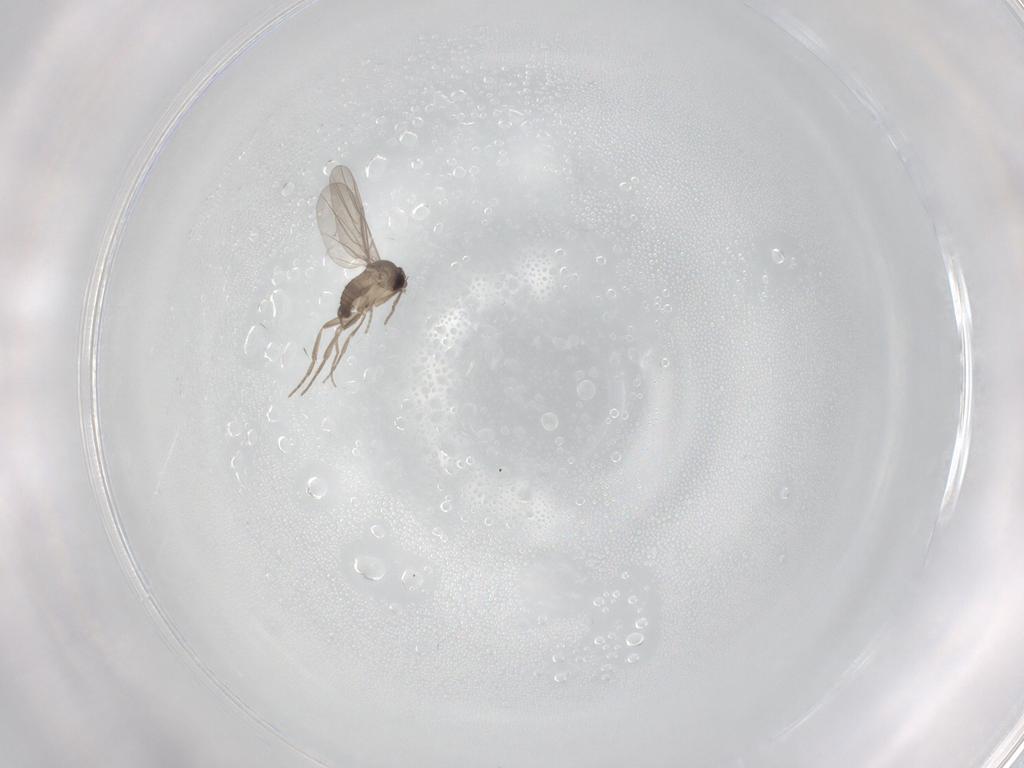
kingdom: Animalia
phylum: Arthropoda
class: Insecta
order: Diptera
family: Phoridae
